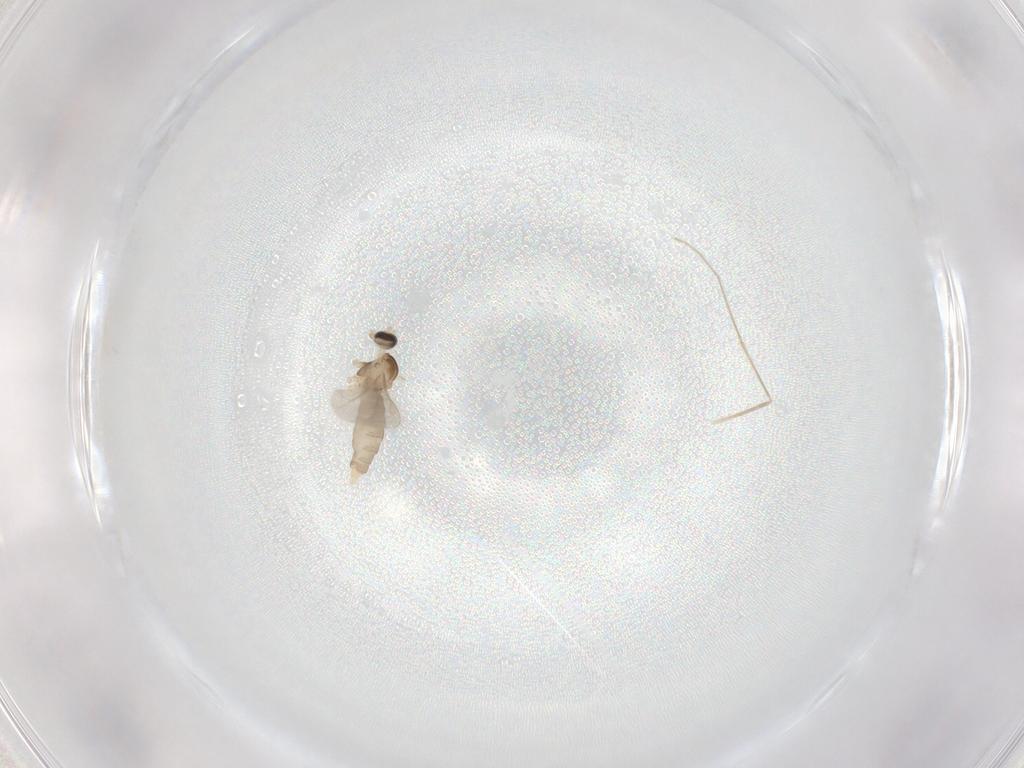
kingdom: Animalia
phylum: Arthropoda
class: Insecta
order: Diptera
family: Cecidomyiidae
